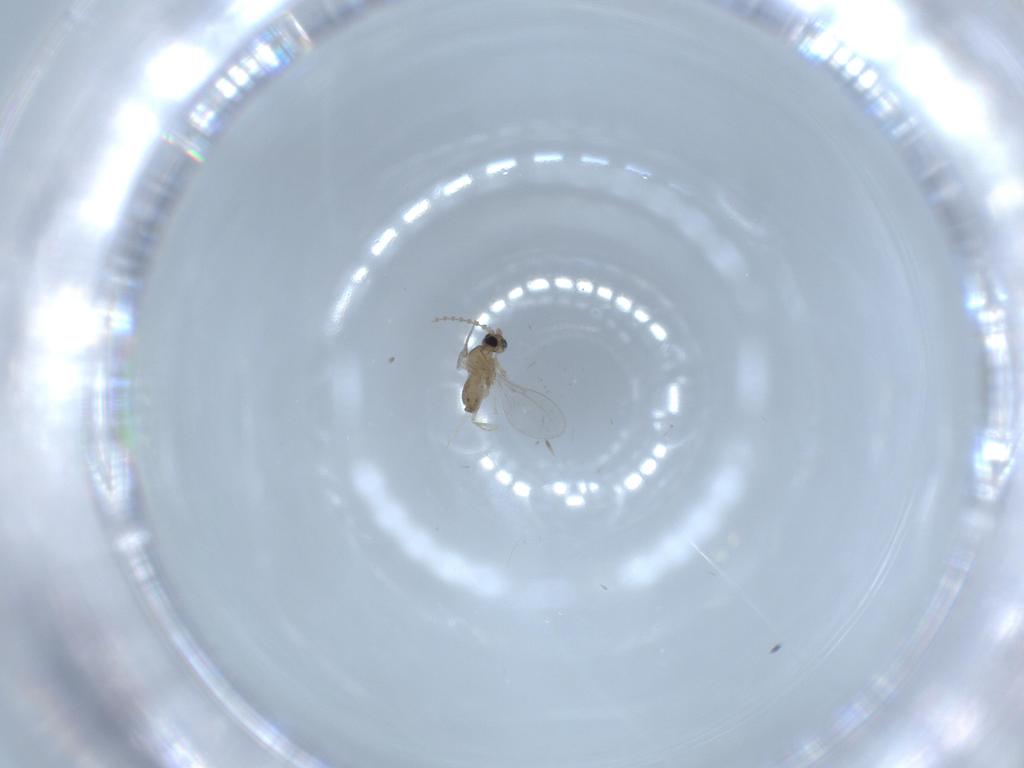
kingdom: Animalia
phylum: Arthropoda
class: Insecta
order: Diptera
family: Cecidomyiidae
